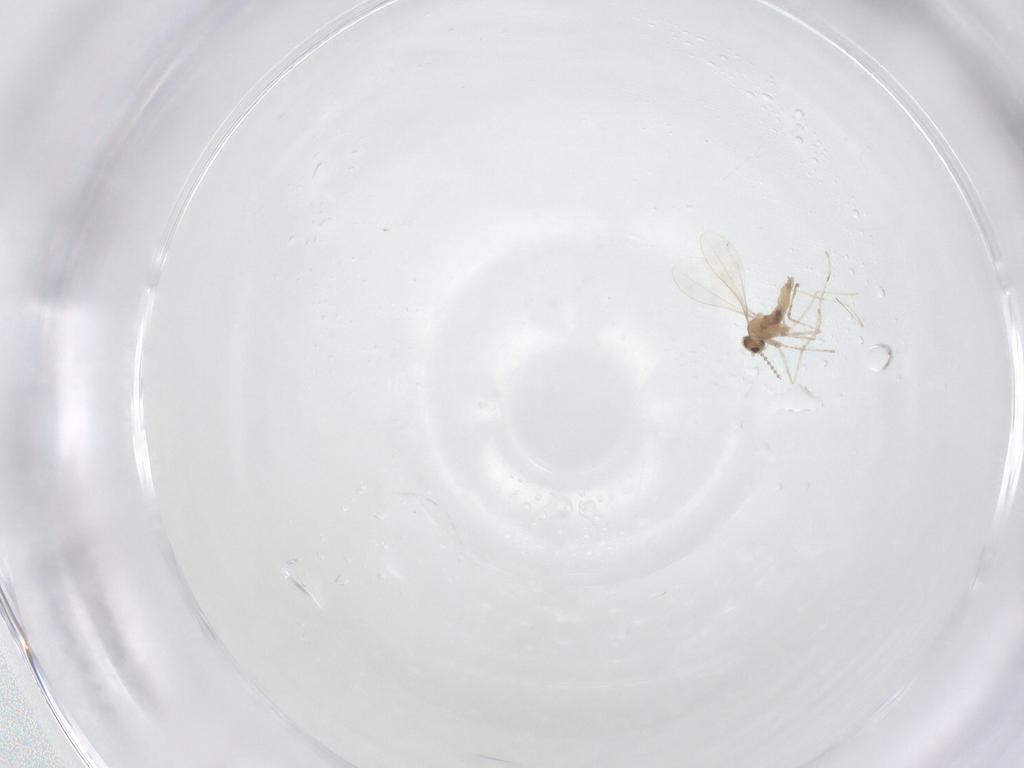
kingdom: Animalia
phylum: Arthropoda
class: Insecta
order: Diptera
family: Cecidomyiidae
